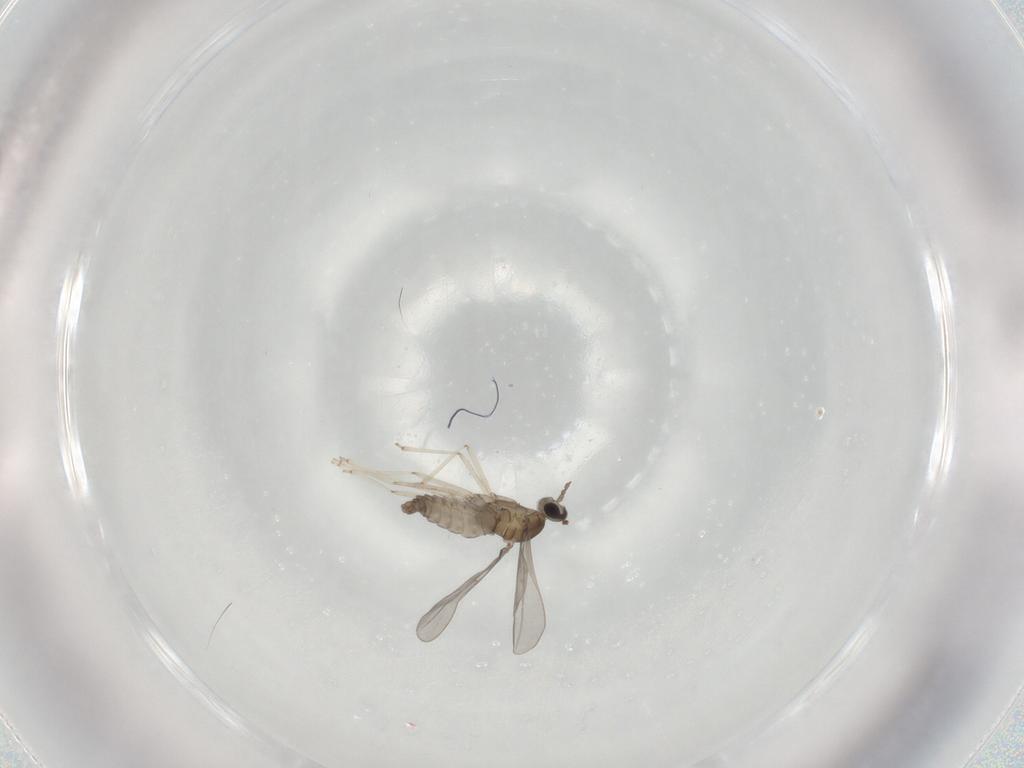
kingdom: Animalia
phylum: Arthropoda
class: Insecta
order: Diptera
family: Cecidomyiidae
